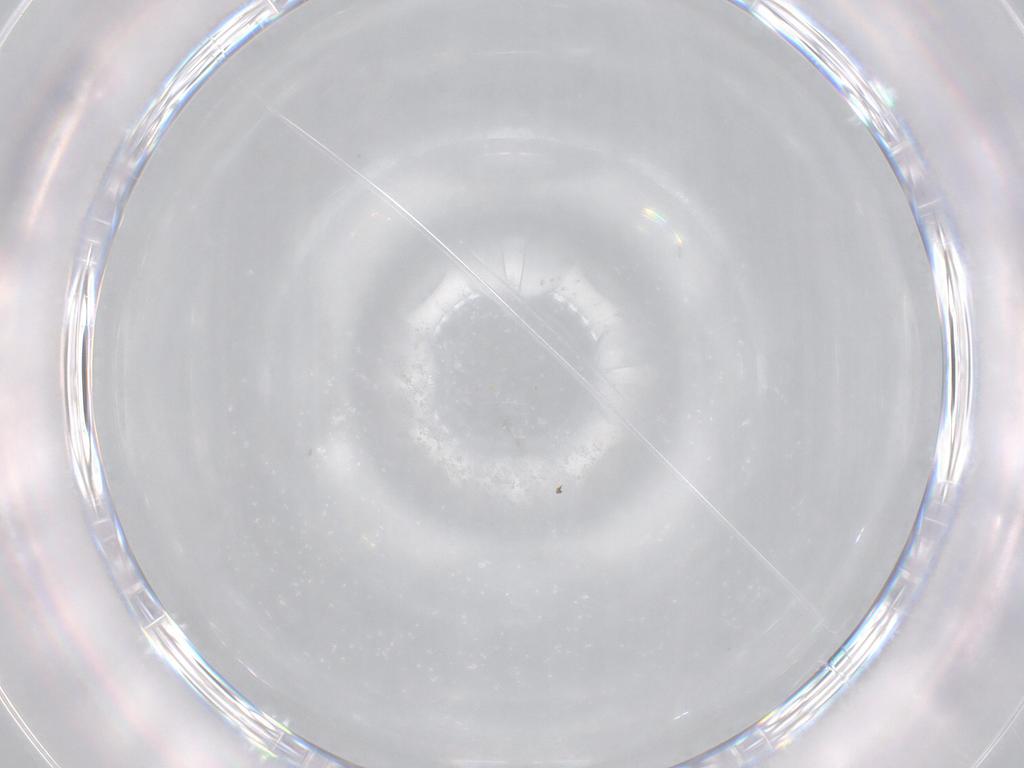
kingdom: Animalia
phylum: Arthropoda
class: Insecta
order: Hemiptera
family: Cicadellidae
